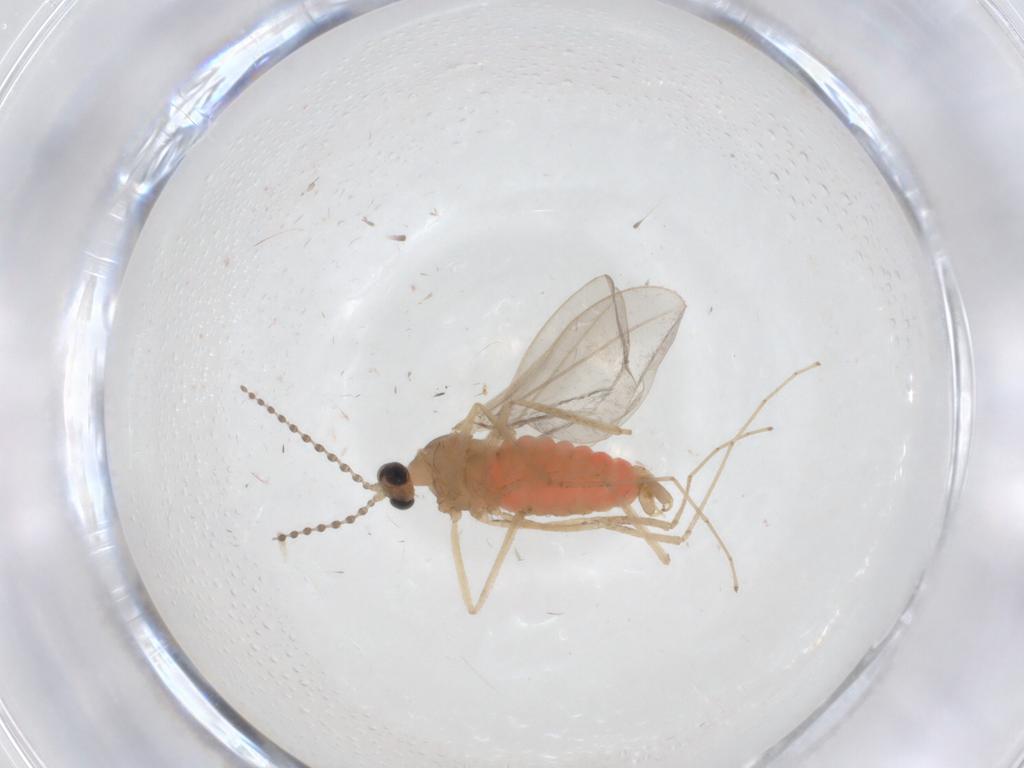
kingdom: Animalia
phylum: Arthropoda
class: Insecta
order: Diptera
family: Cecidomyiidae
